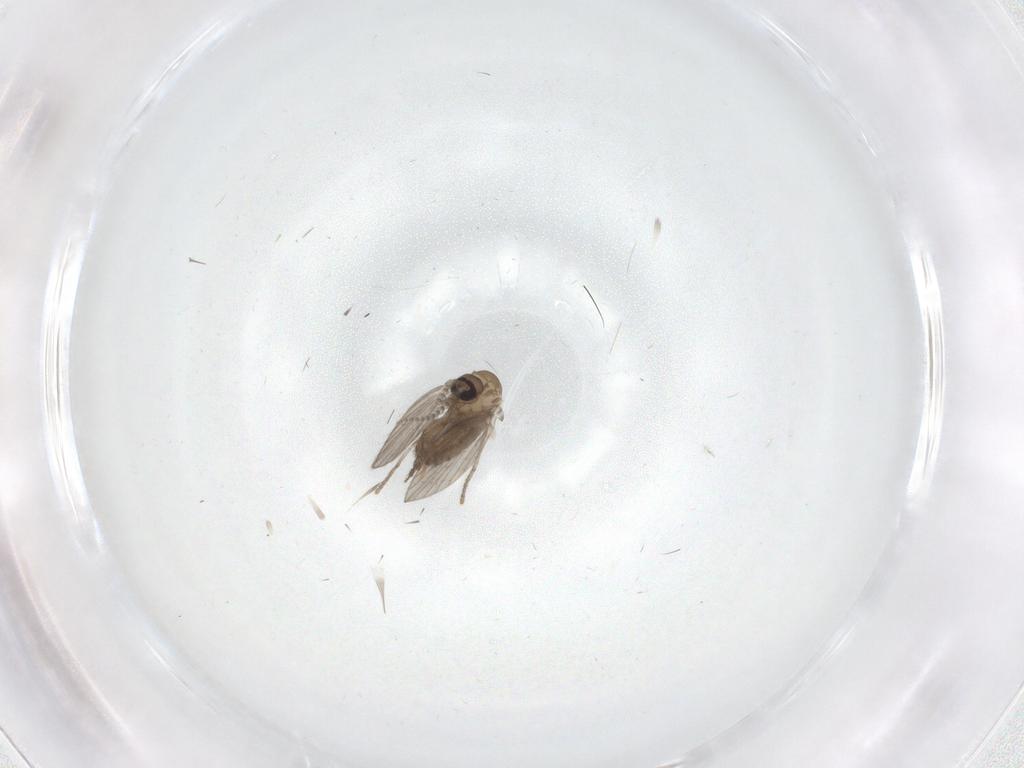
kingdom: Animalia
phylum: Arthropoda
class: Insecta
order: Diptera
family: Psychodidae
